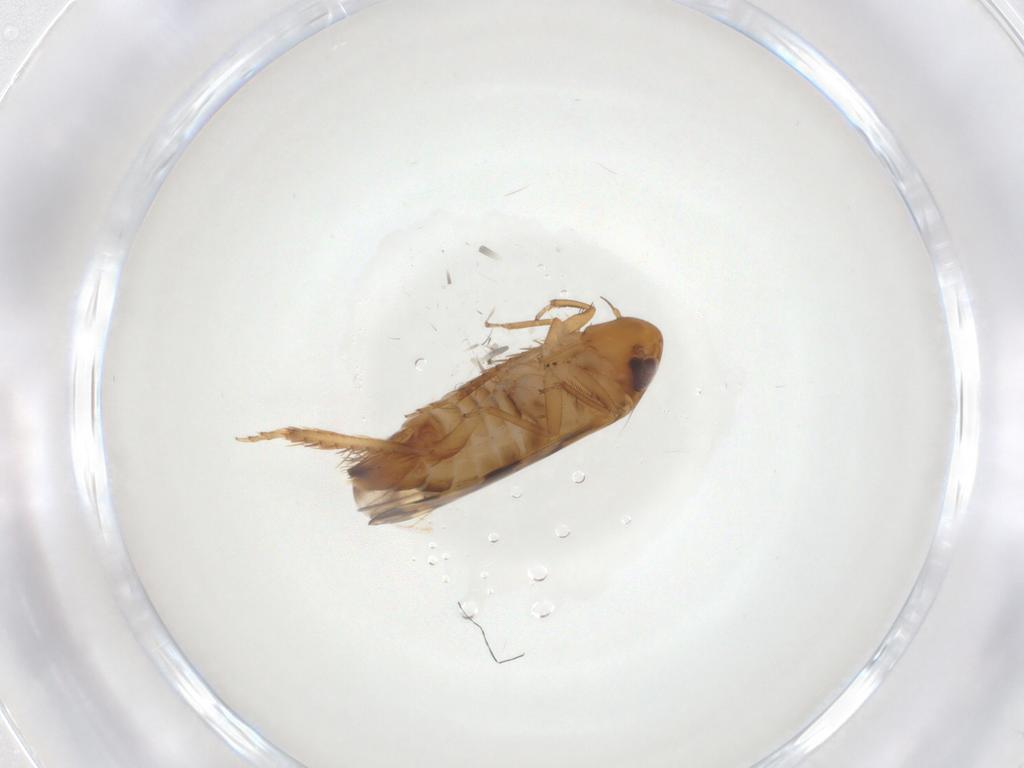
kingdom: Animalia
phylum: Arthropoda
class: Insecta
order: Hemiptera
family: Cicadellidae
